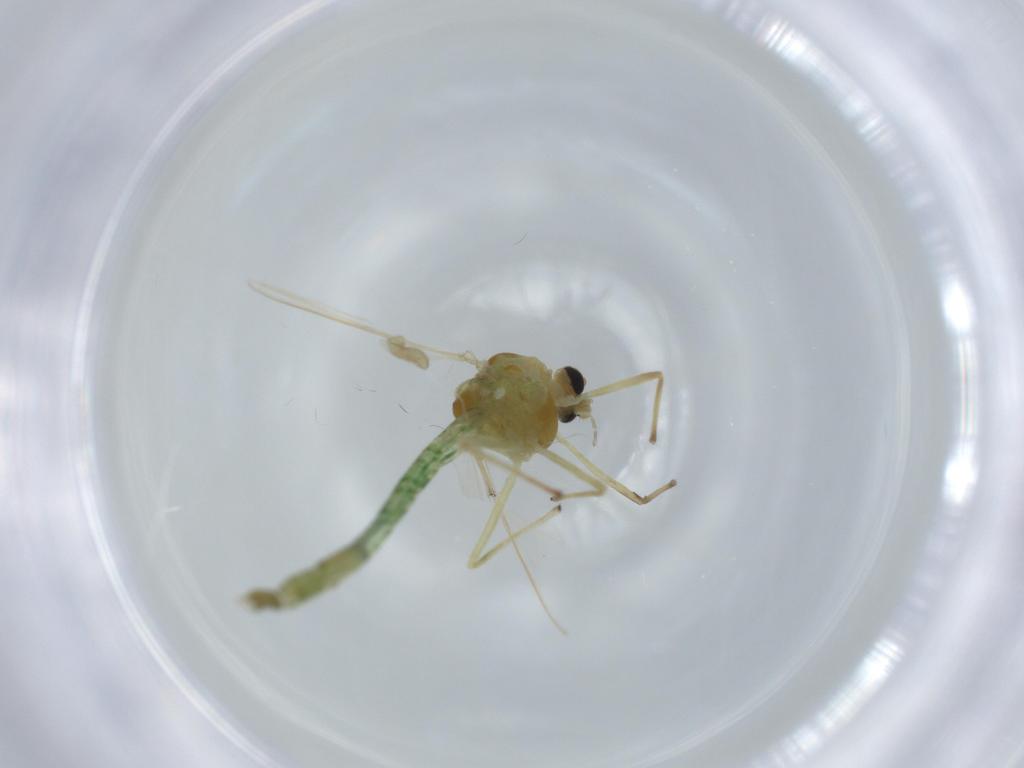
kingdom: Animalia
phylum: Arthropoda
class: Insecta
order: Diptera
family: Chironomidae
